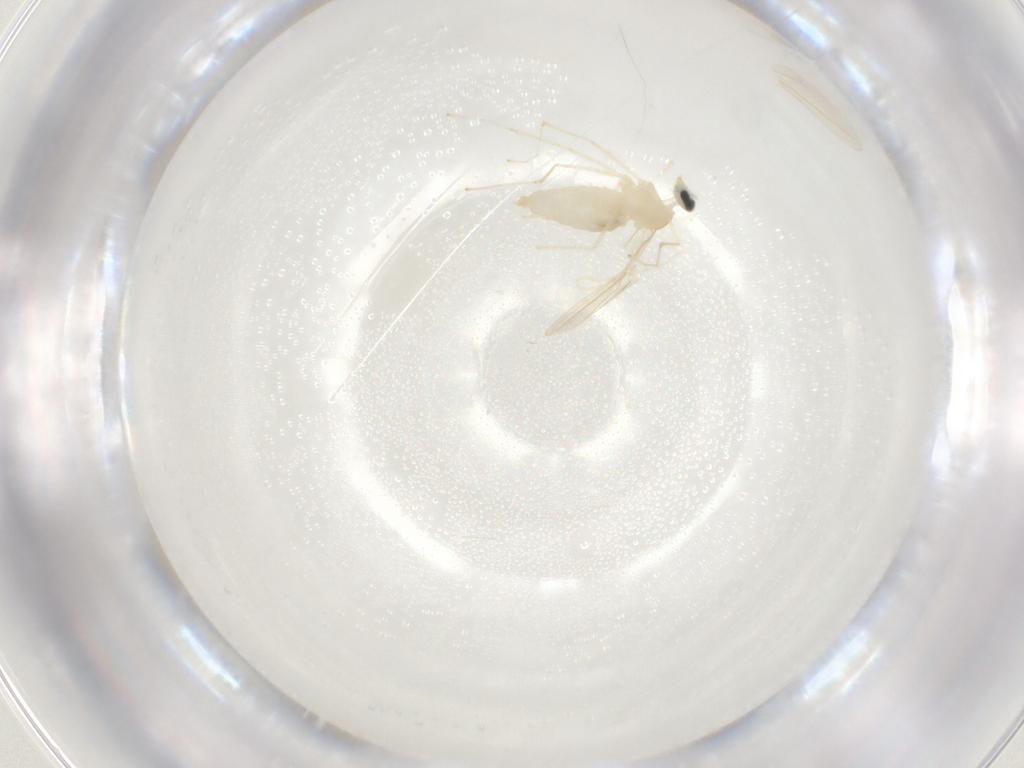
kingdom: Animalia
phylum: Arthropoda
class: Insecta
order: Diptera
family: Cecidomyiidae
